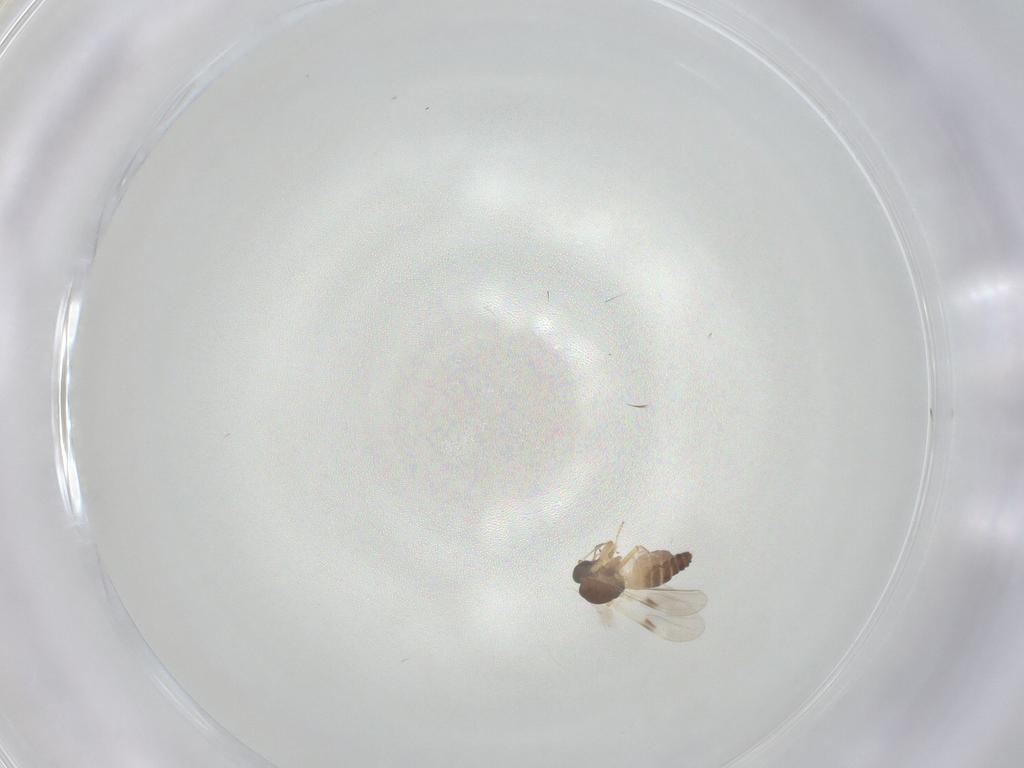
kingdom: Animalia
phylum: Arthropoda
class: Insecta
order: Diptera
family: Ceratopogonidae
